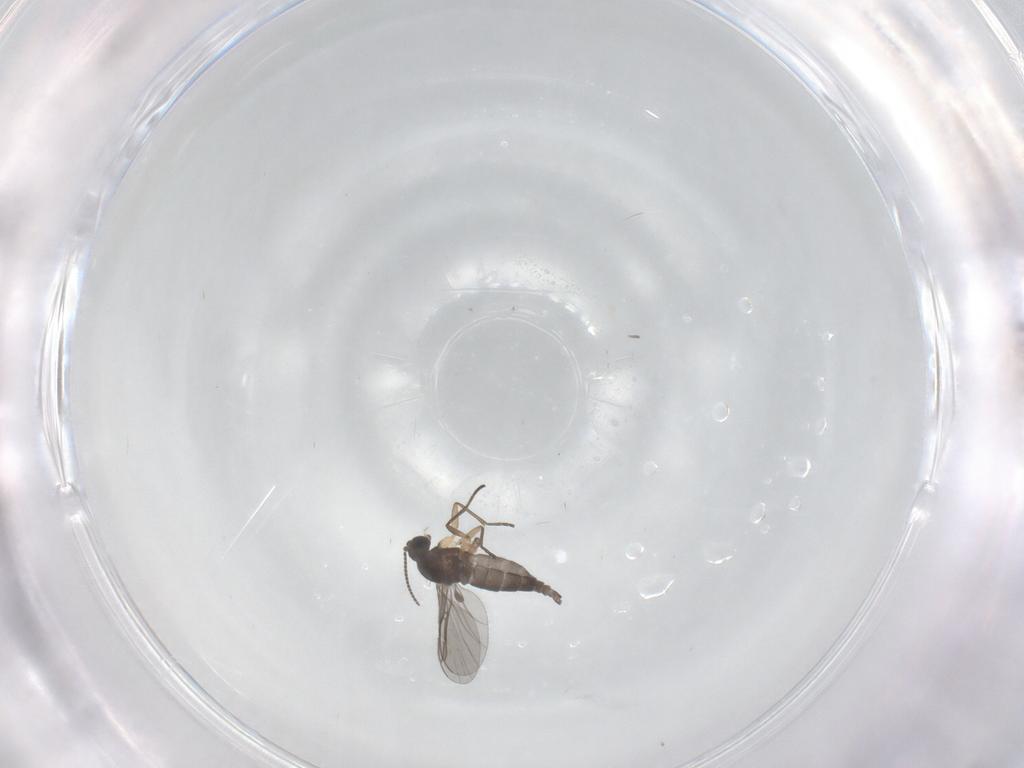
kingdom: Animalia
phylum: Arthropoda
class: Insecta
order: Diptera
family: Sciaridae
